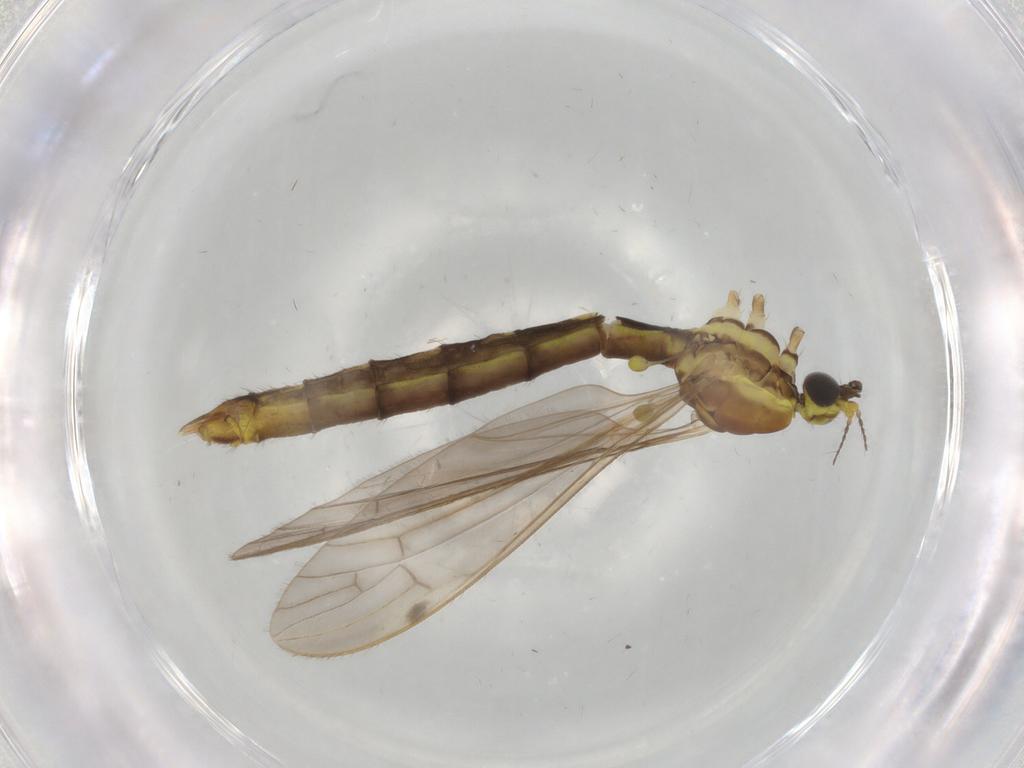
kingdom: Animalia
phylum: Arthropoda
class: Insecta
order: Diptera
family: Limoniidae
